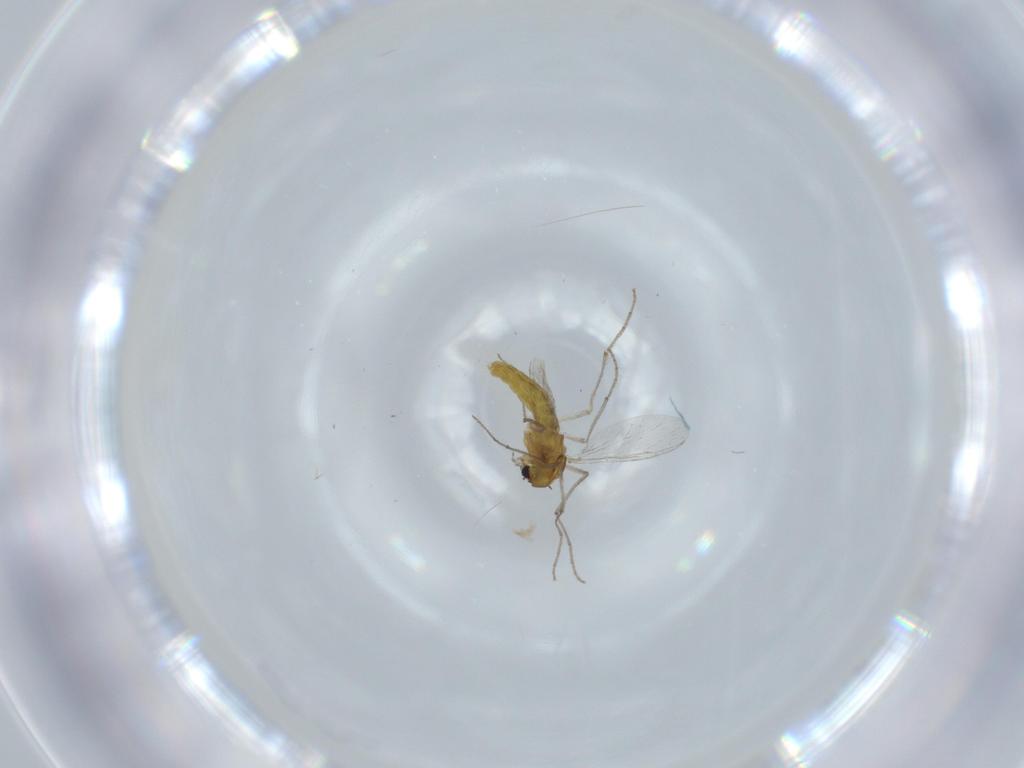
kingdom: Animalia
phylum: Arthropoda
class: Insecta
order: Diptera
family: Chironomidae
